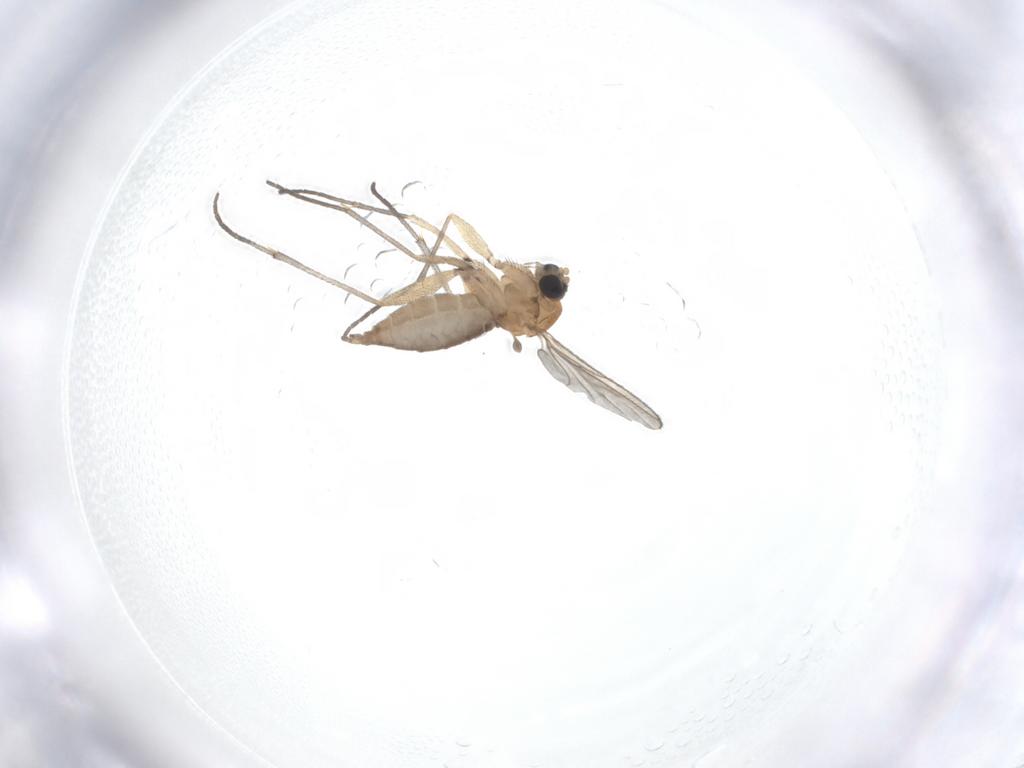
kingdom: Animalia
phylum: Arthropoda
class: Insecta
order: Diptera
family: Sciaridae
